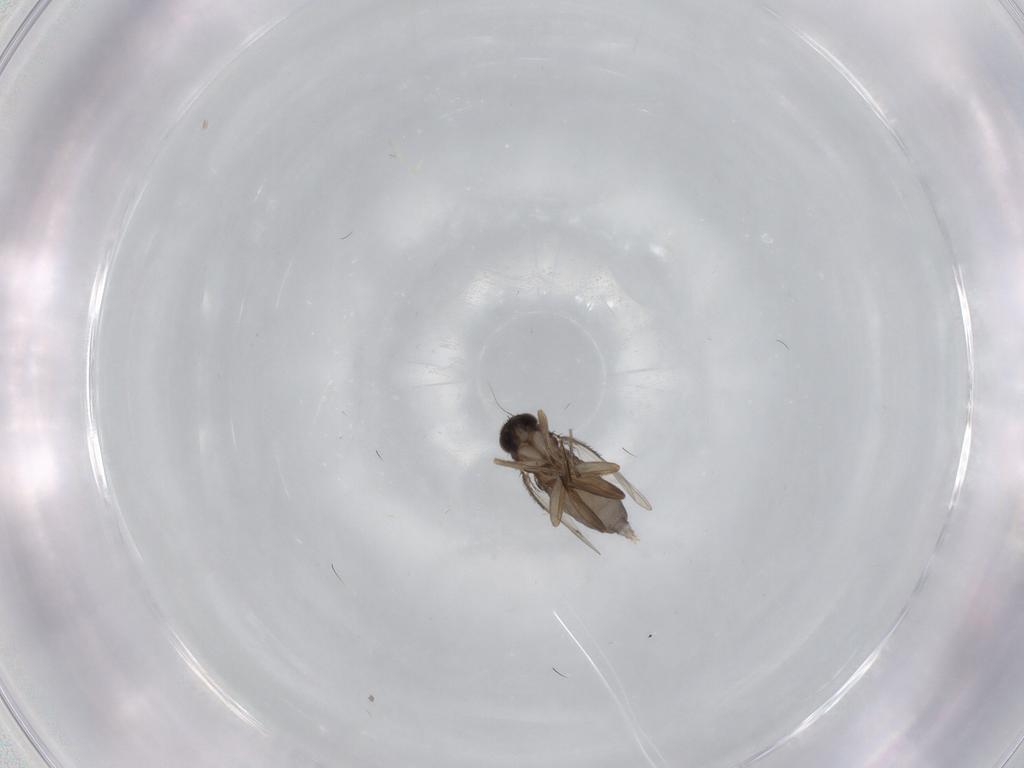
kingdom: Animalia
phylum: Arthropoda
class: Insecta
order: Diptera
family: Phoridae
